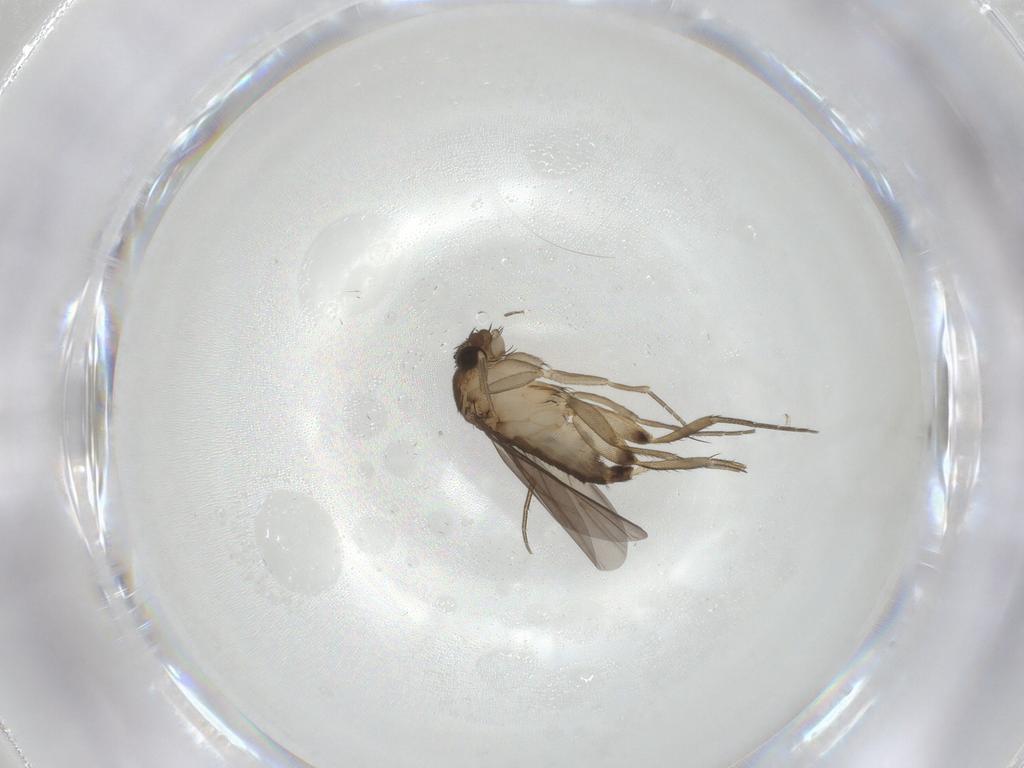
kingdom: Animalia
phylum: Arthropoda
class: Insecta
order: Diptera
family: Phoridae
